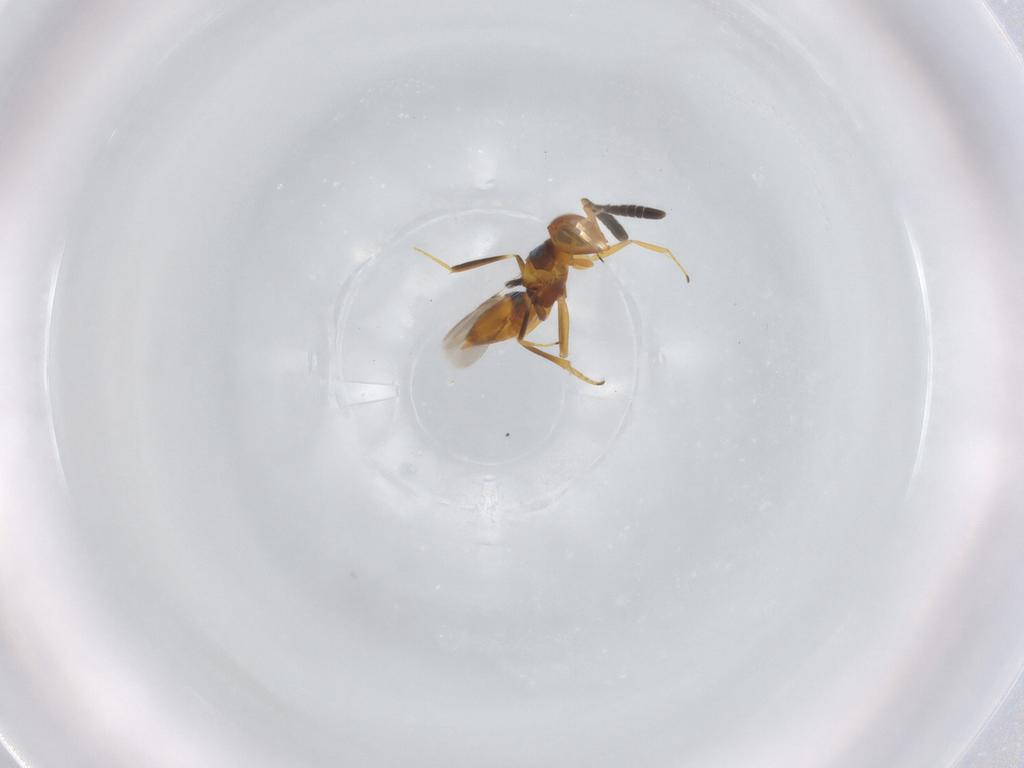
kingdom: Animalia
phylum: Arthropoda
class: Insecta
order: Hymenoptera
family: Encyrtidae
